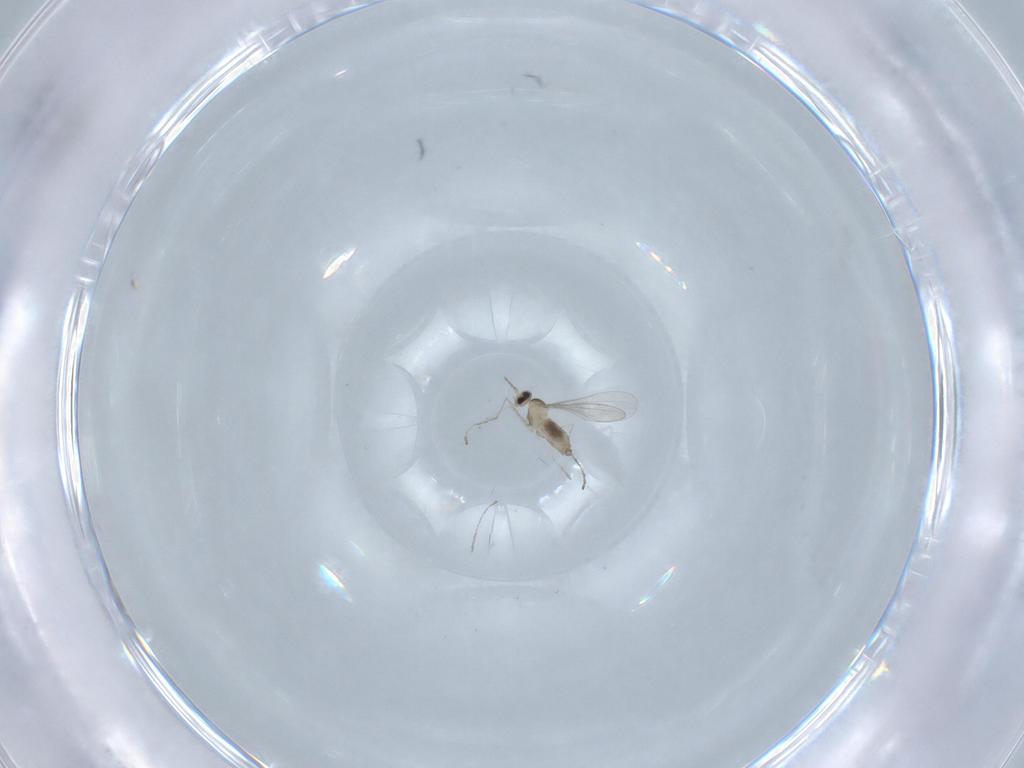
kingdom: Animalia
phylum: Arthropoda
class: Insecta
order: Diptera
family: Cecidomyiidae
